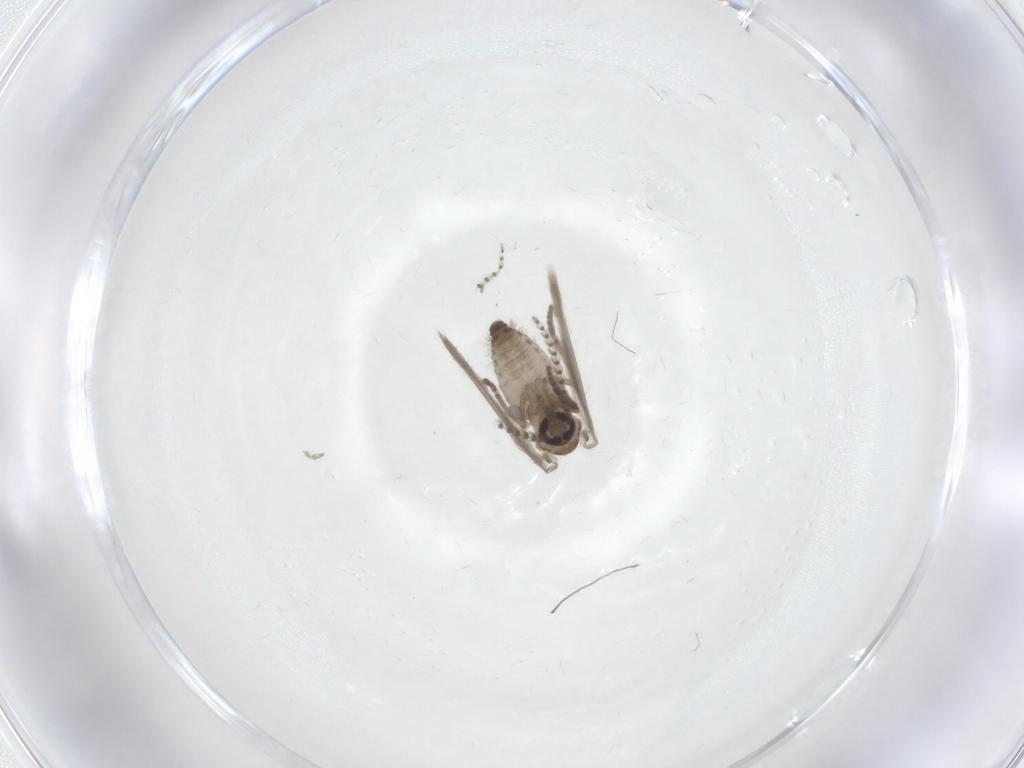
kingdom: Animalia
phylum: Arthropoda
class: Insecta
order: Diptera
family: Psychodidae
